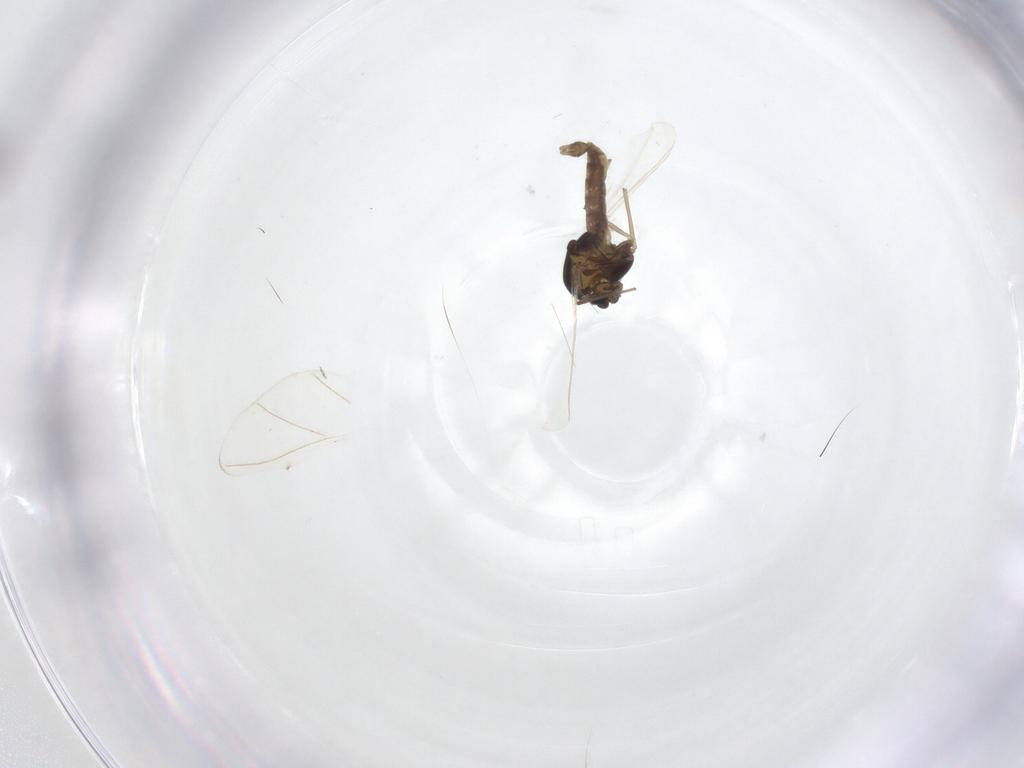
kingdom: Animalia
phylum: Arthropoda
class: Insecta
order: Diptera
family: Chironomidae
